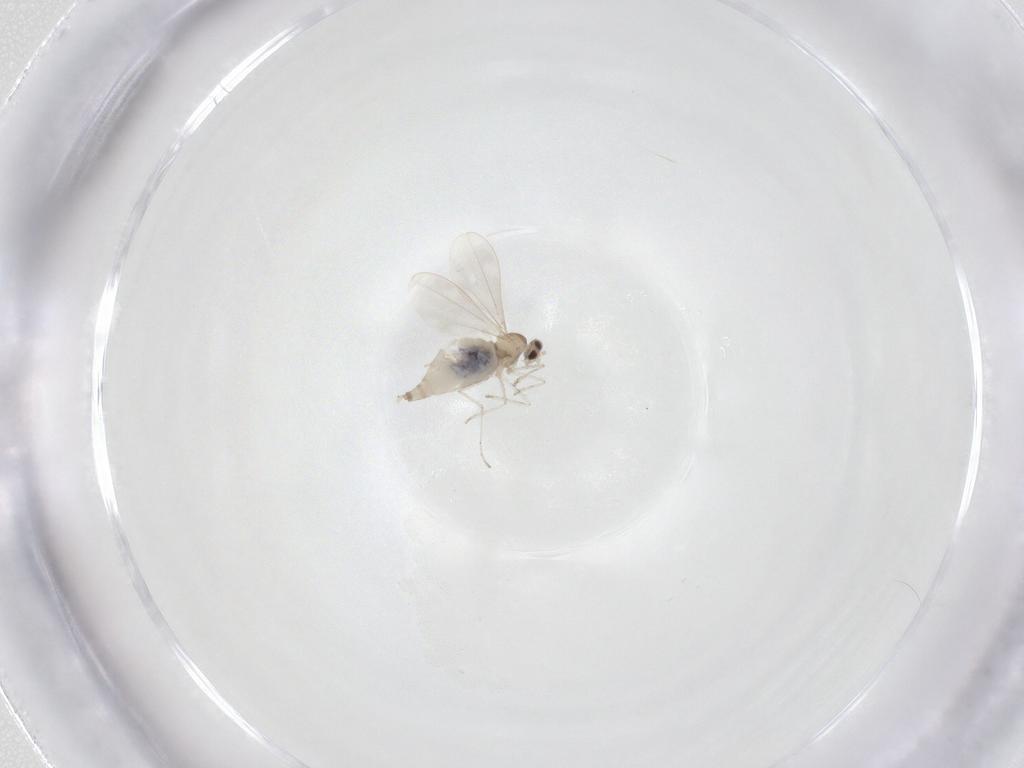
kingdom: Animalia
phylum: Arthropoda
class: Insecta
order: Diptera
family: Cecidomyiidae
